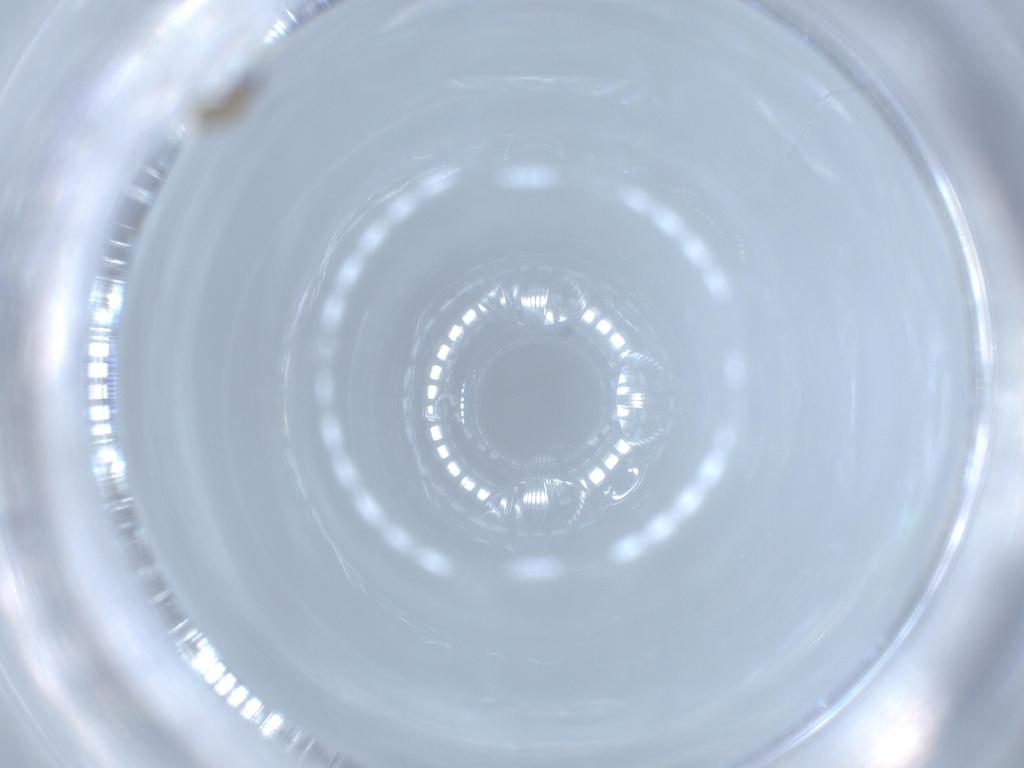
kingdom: Animalia
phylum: Arthropoda
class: Insecta
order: Diptera
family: Ceratopogonidae
